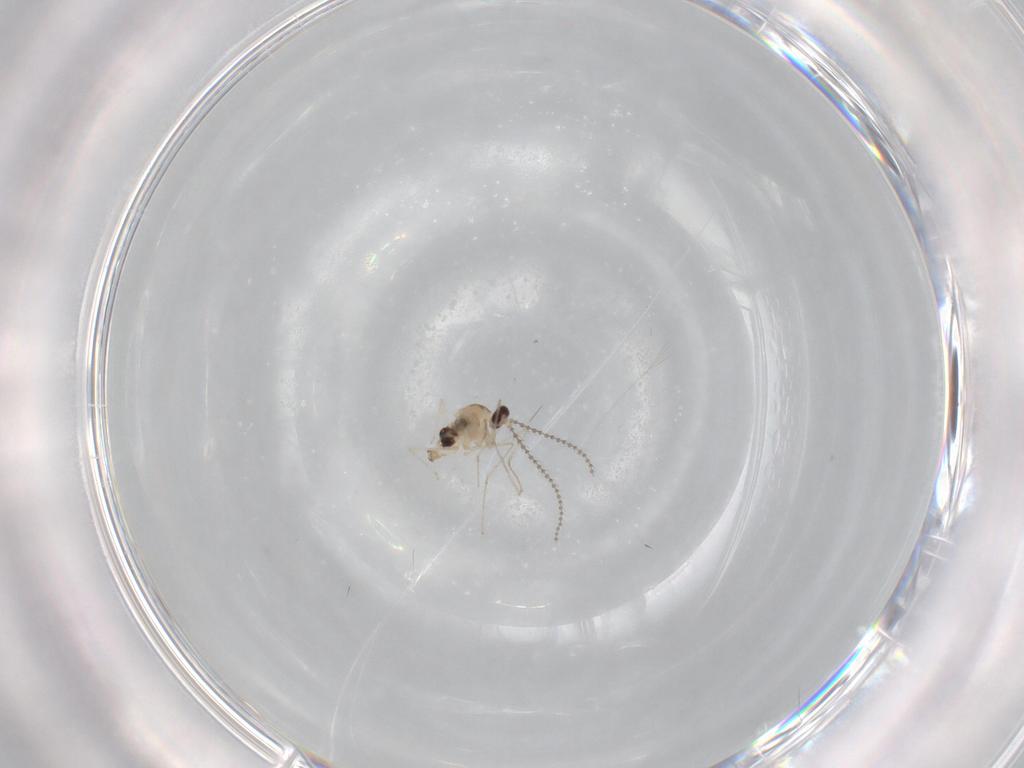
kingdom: Animalia
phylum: Arthropoda
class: Insecta
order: Diptera
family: Cecidomyiidae
